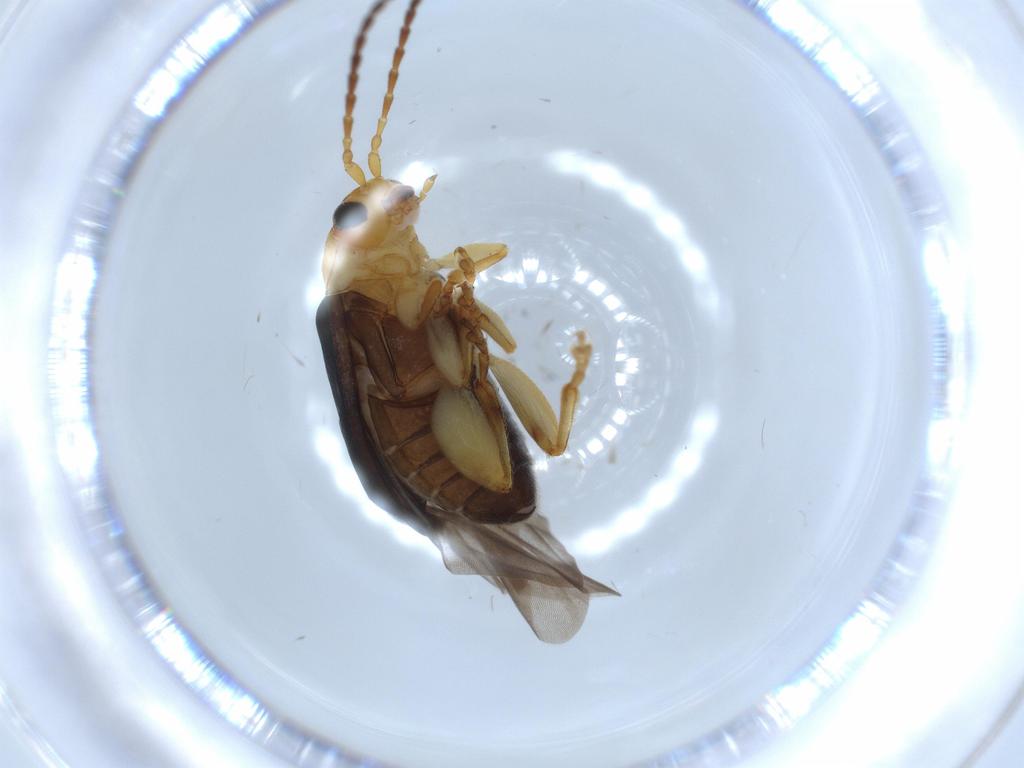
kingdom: Animalia
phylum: Arthropoda
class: Insecta
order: Coleoptera
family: Chrysomelidae
